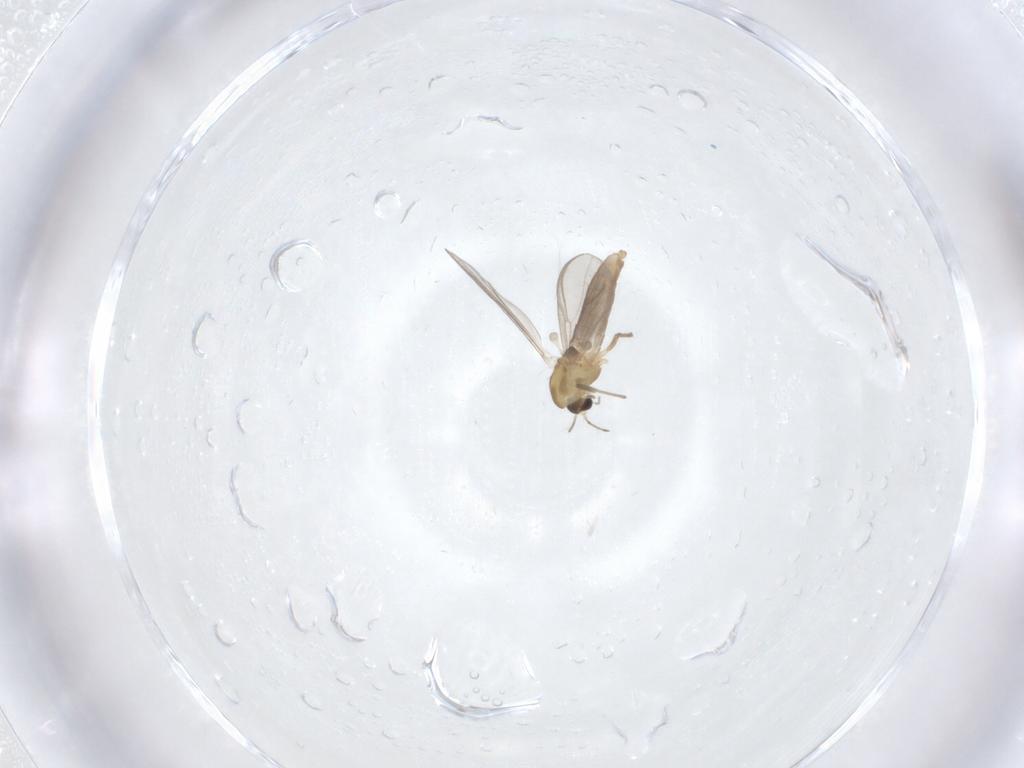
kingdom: Animalia
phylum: Arthropoda
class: Insecta
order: Diptera
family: Chironomidae
